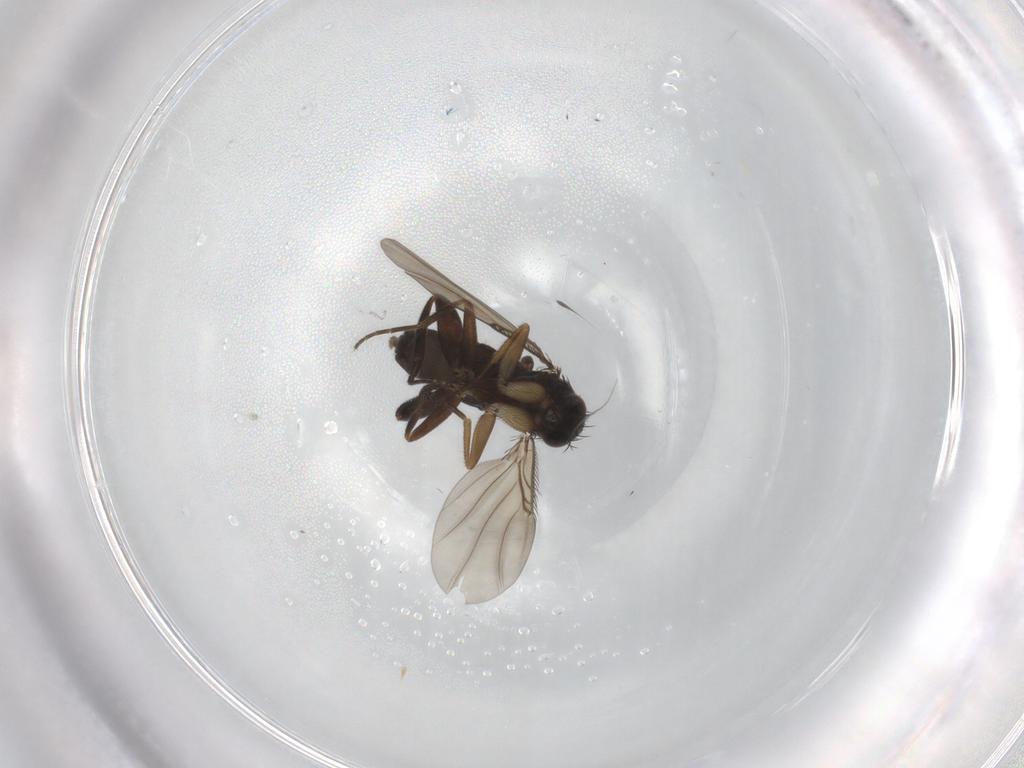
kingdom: Animalia
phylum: Arthropoda
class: Insecta
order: Diptera
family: Phoridae
